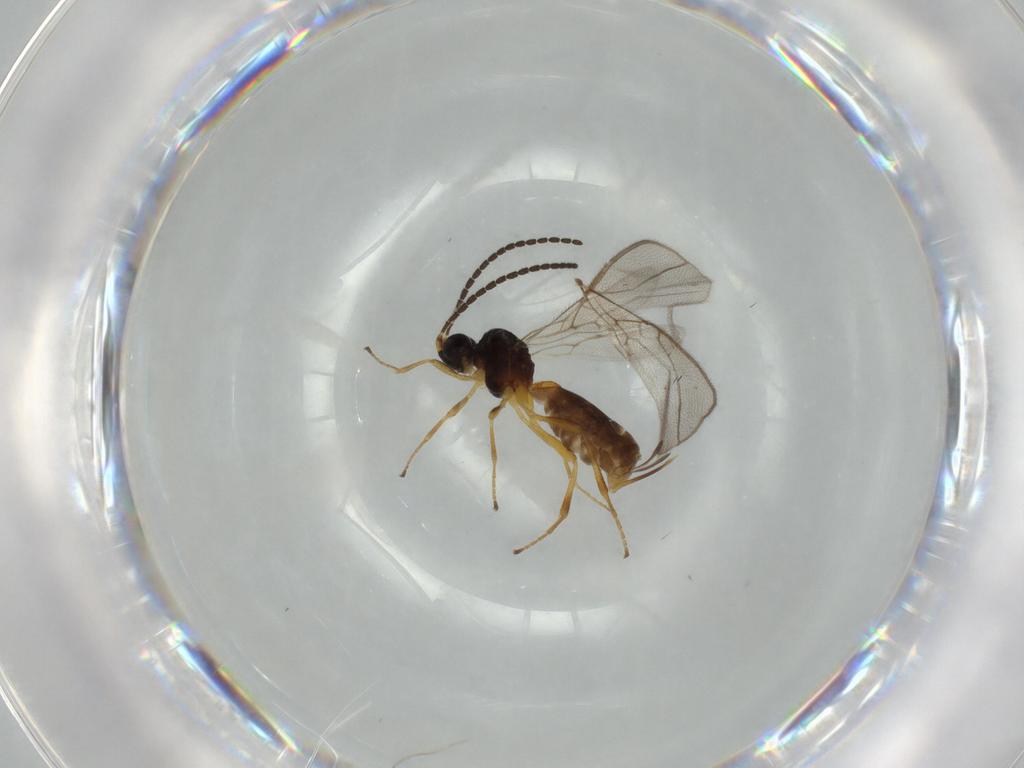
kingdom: Animalia
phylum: Arthropoda
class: Insecta
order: Hymenoptera
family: Braconidae
